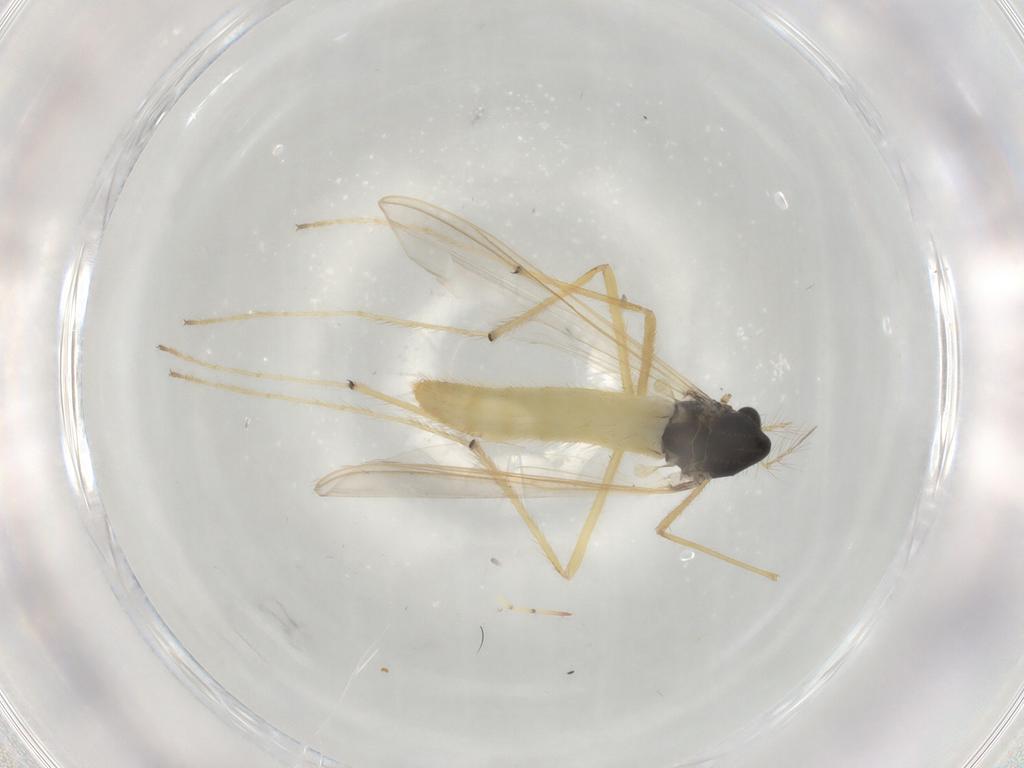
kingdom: Animalia
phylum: Arthropoda
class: Insecta
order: Diptera
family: Chironomidae
